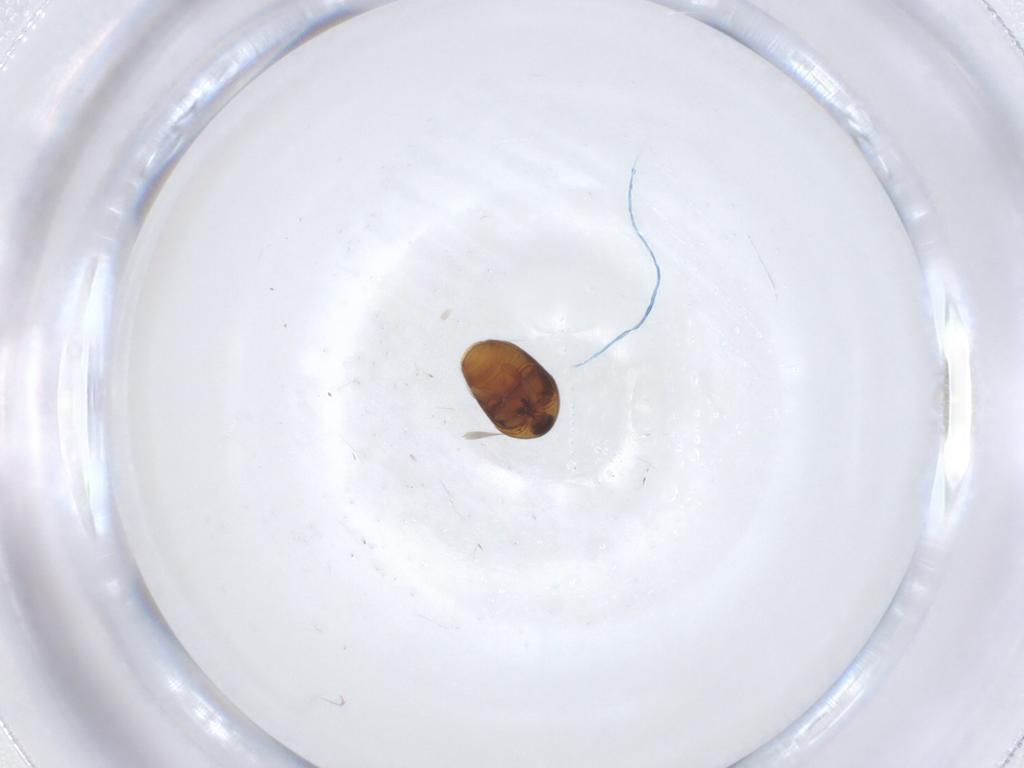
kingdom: Animalia
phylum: Arthropoda
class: Insecta
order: Coleoptera
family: Corylophidae
